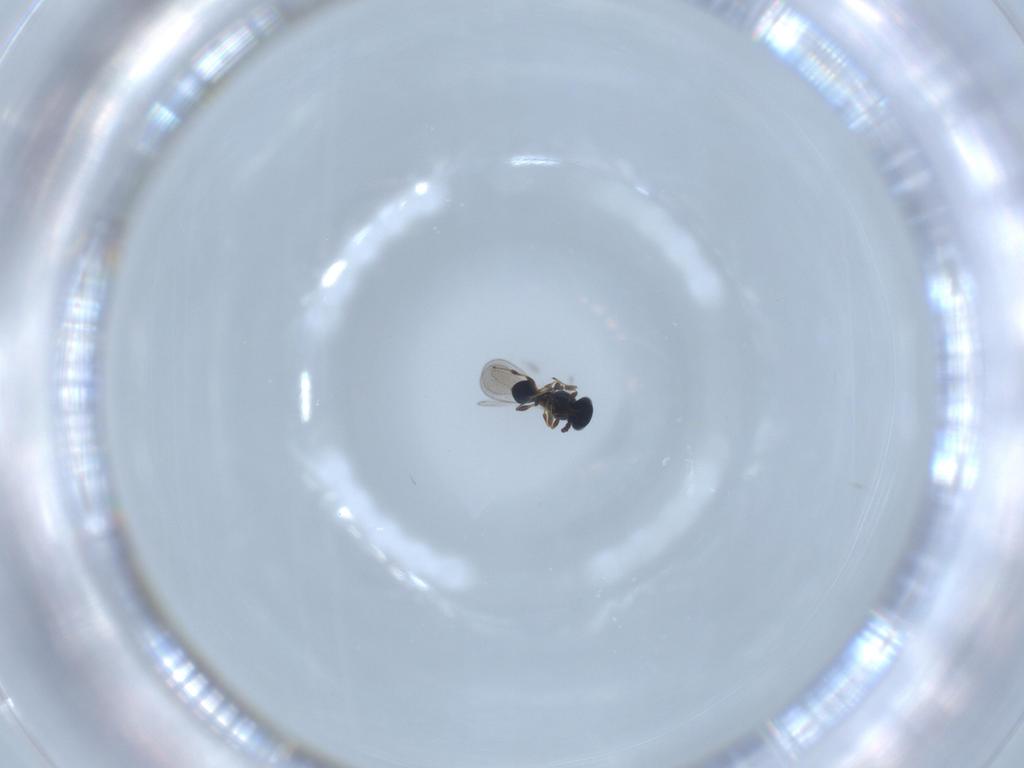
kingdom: Animalia
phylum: Arthropoda
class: Insecta
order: Hymenoptera
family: Platygastridae
